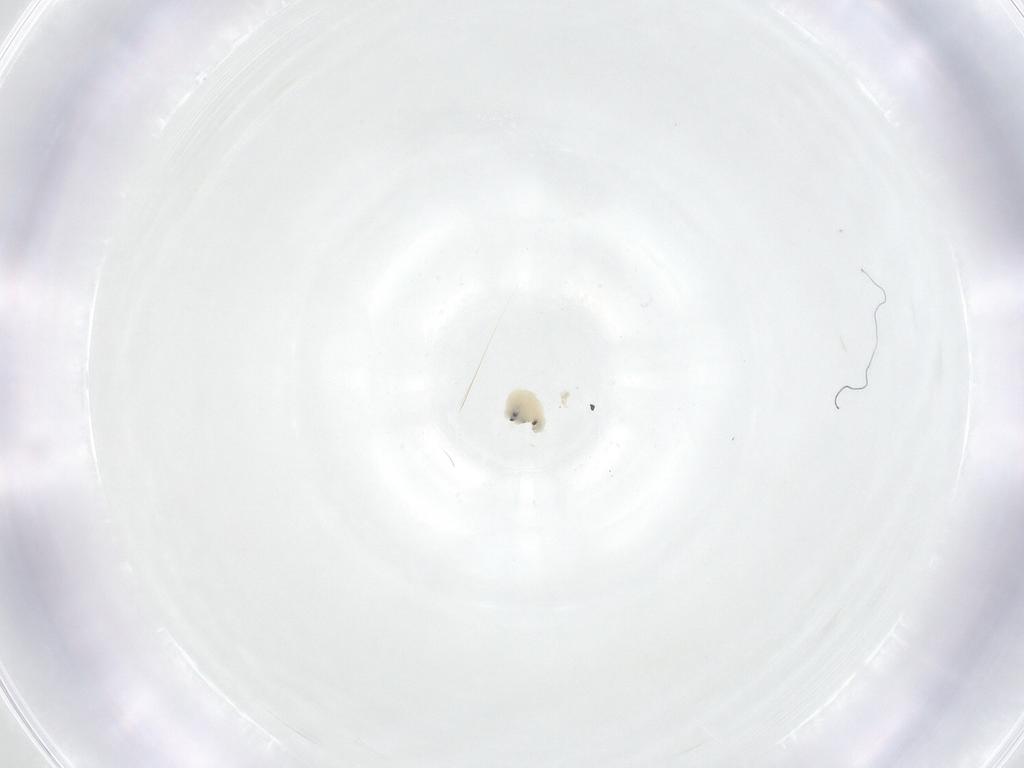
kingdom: Animalia
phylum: Arthropoda
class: Insecta
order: Diptera
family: Fergusoninidae
